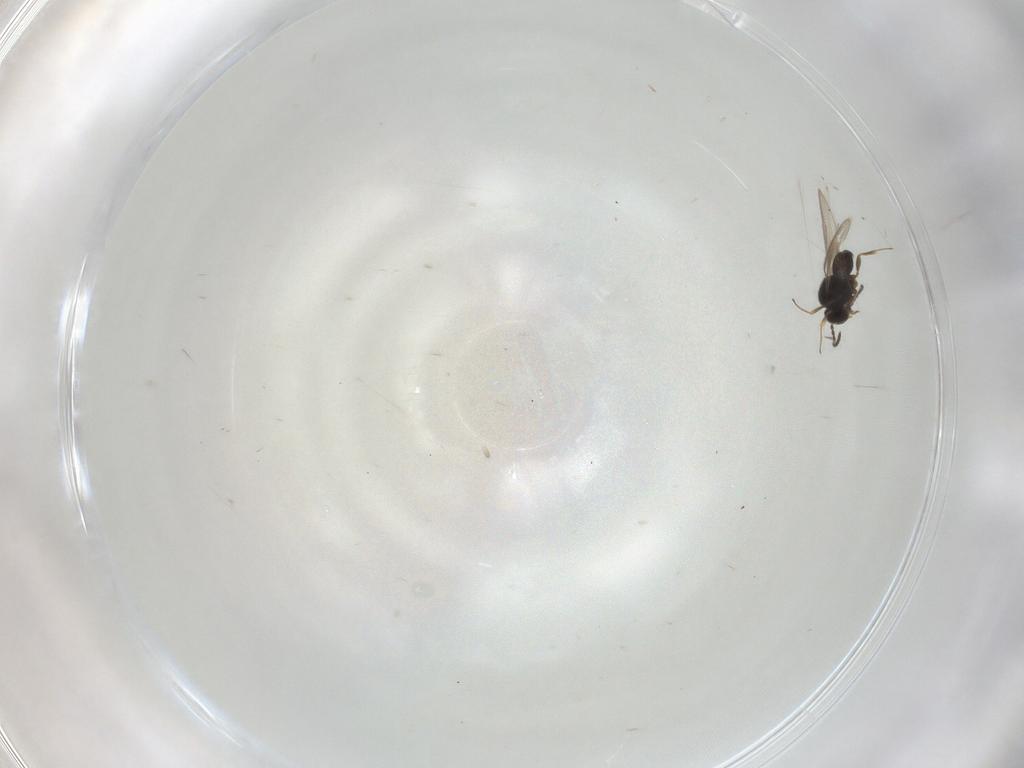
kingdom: Animalia
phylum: Arthropoda
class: Insecta
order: Hymenoptera
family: Scelionidae
